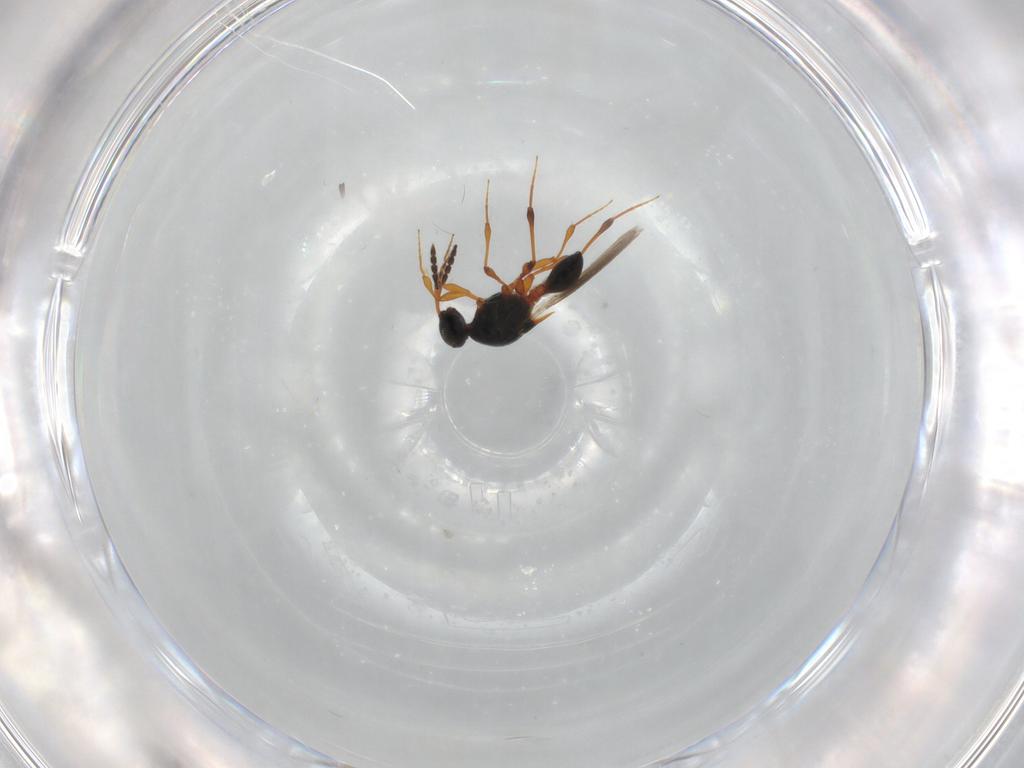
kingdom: Animalia
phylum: Arthropoda
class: Insecta
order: Hymenoptera
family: Platygastridae
